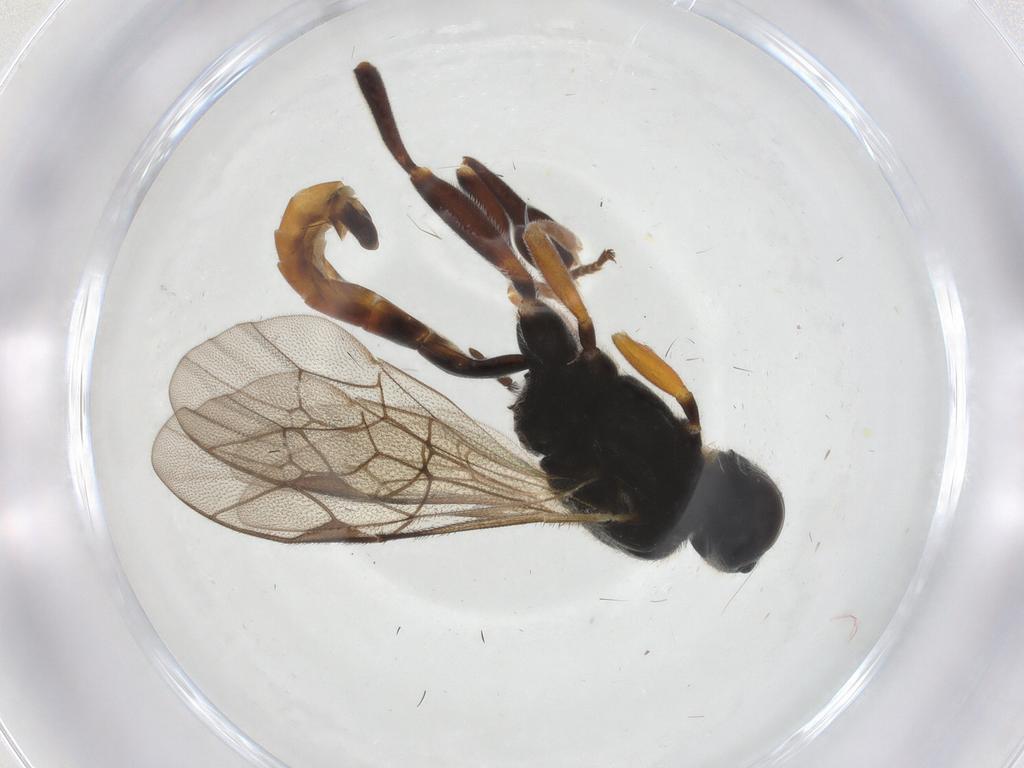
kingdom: Animalia
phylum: Arthropoda
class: Insecta
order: Hymenoptera
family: Ichneumonidae
